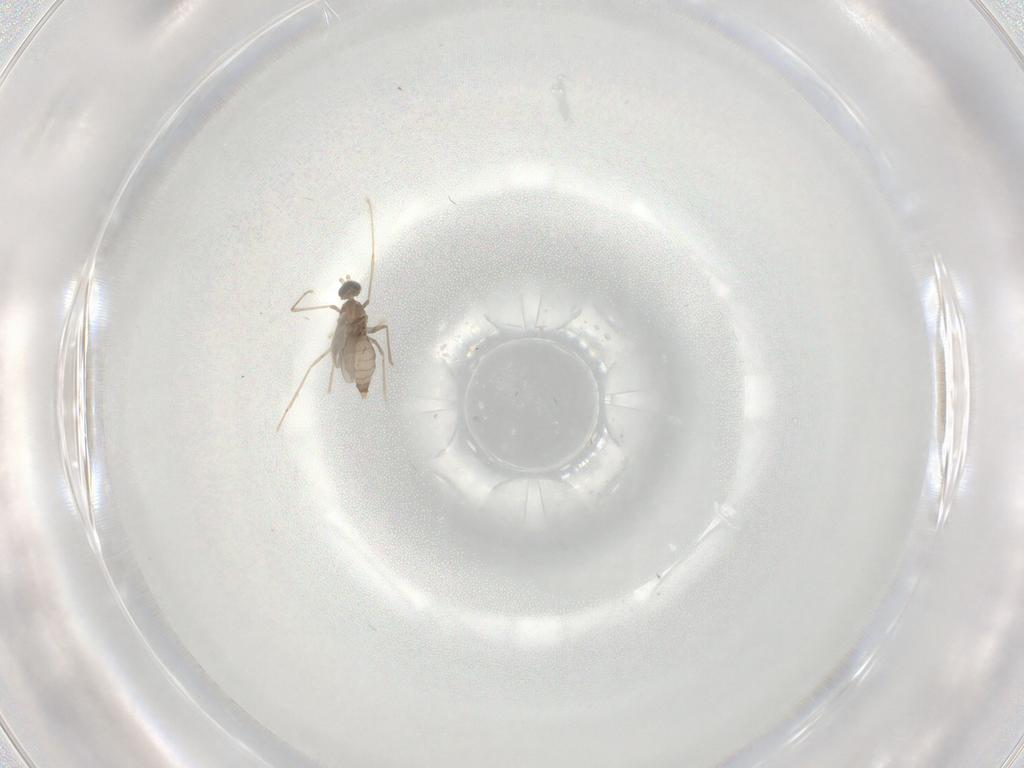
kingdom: Animalia
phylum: Arthropoda
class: Insecta
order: Diptera
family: Cecidomyiidae
